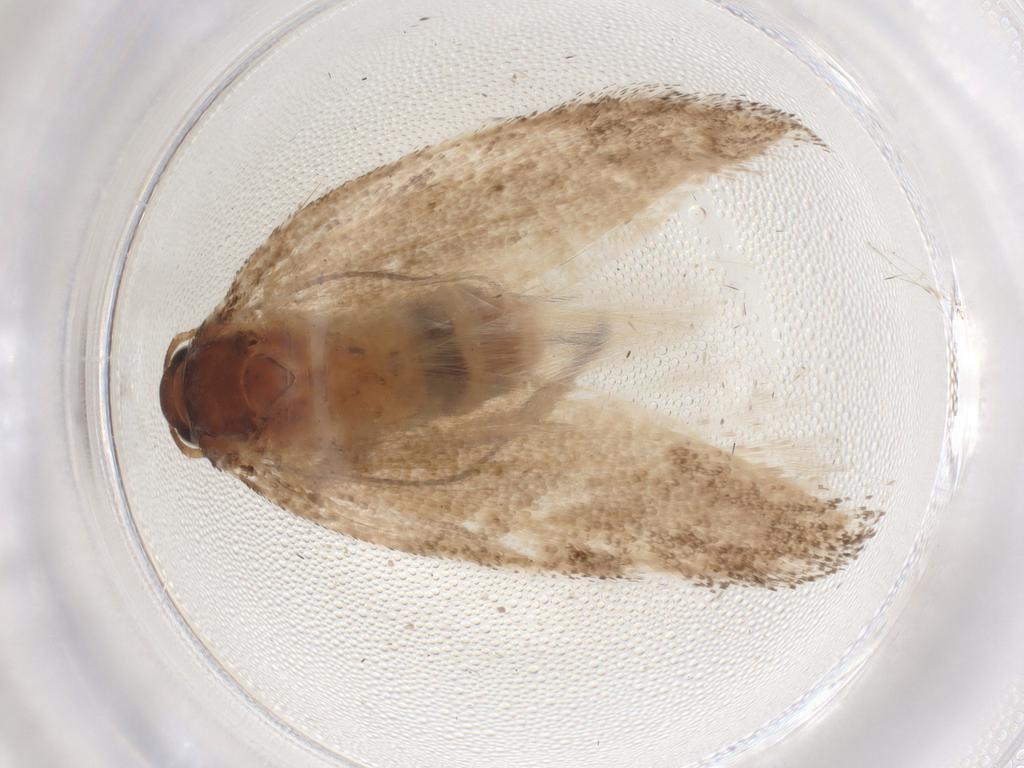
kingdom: Animalia
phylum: Arthropoda
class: Insecta
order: Lepidoptera
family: Cosmopterigidae
